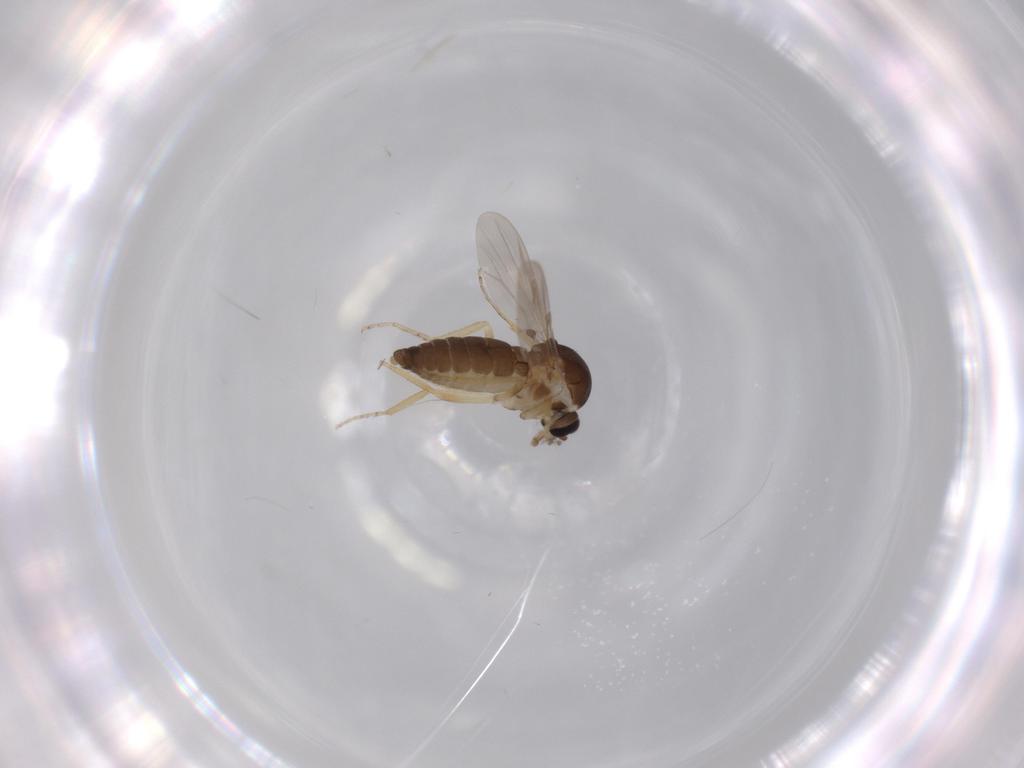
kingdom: Animalia
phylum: Arthropoda
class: Insecta
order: Diptera
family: Ceratopogonidae
